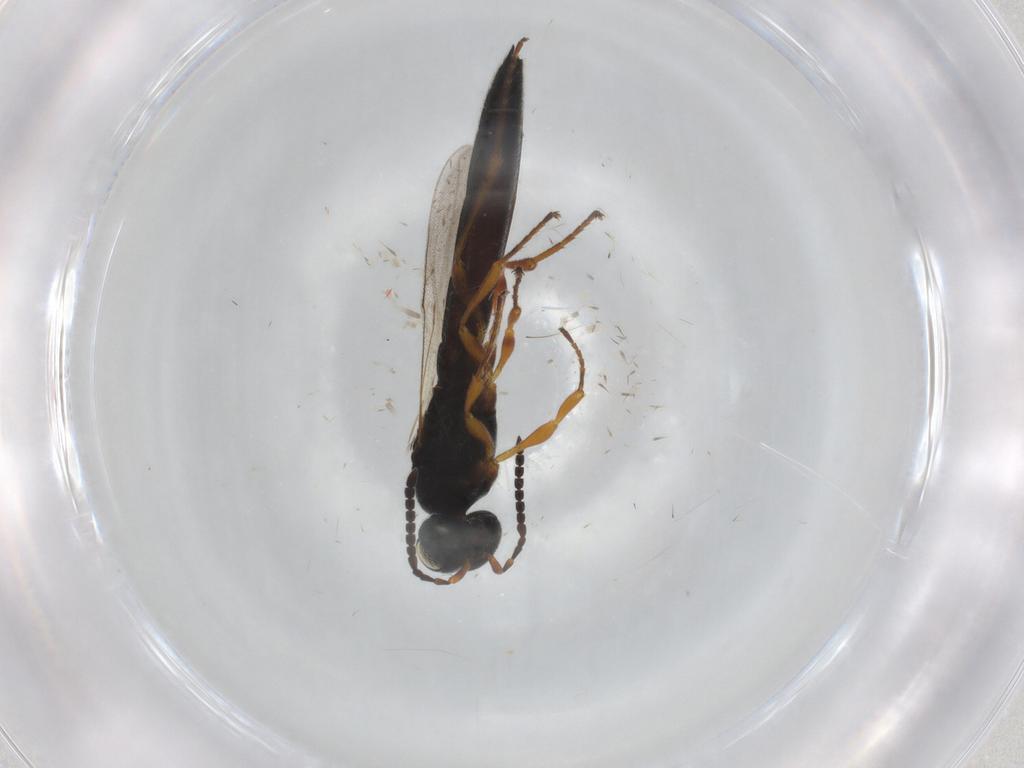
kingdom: Animalia
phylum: Arthropoda
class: Insecta
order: Hymenoptera
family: Scelionidae
